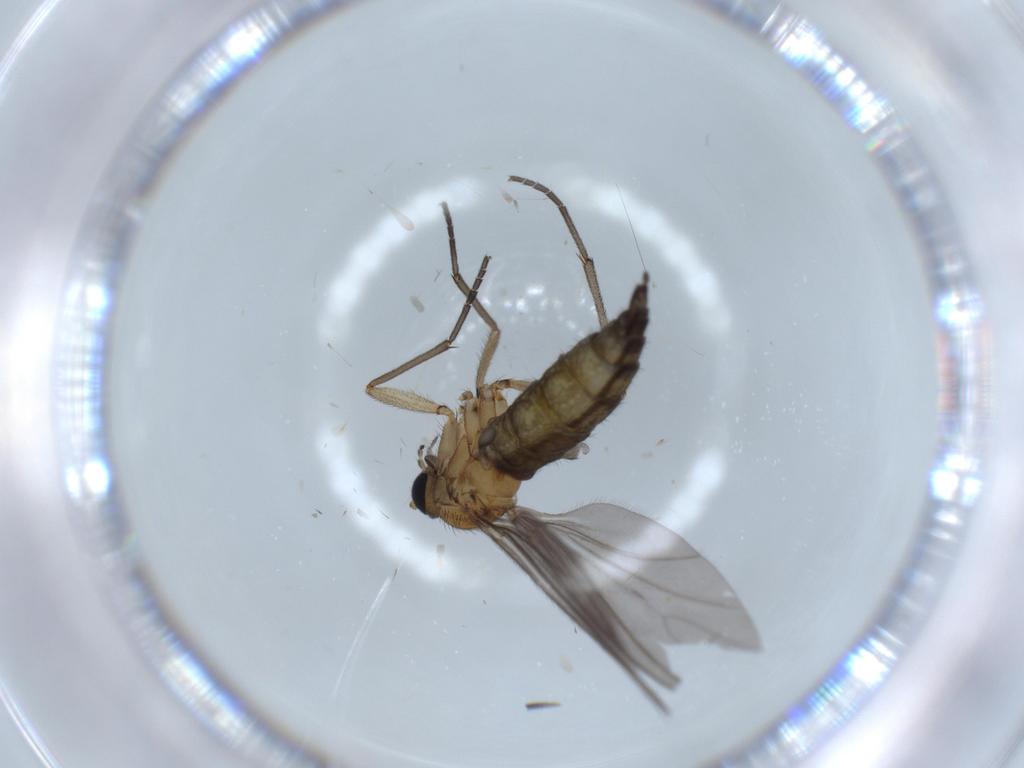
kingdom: Animalia
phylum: Arthropoda
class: Insecta
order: Diptera
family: Sciaridae
